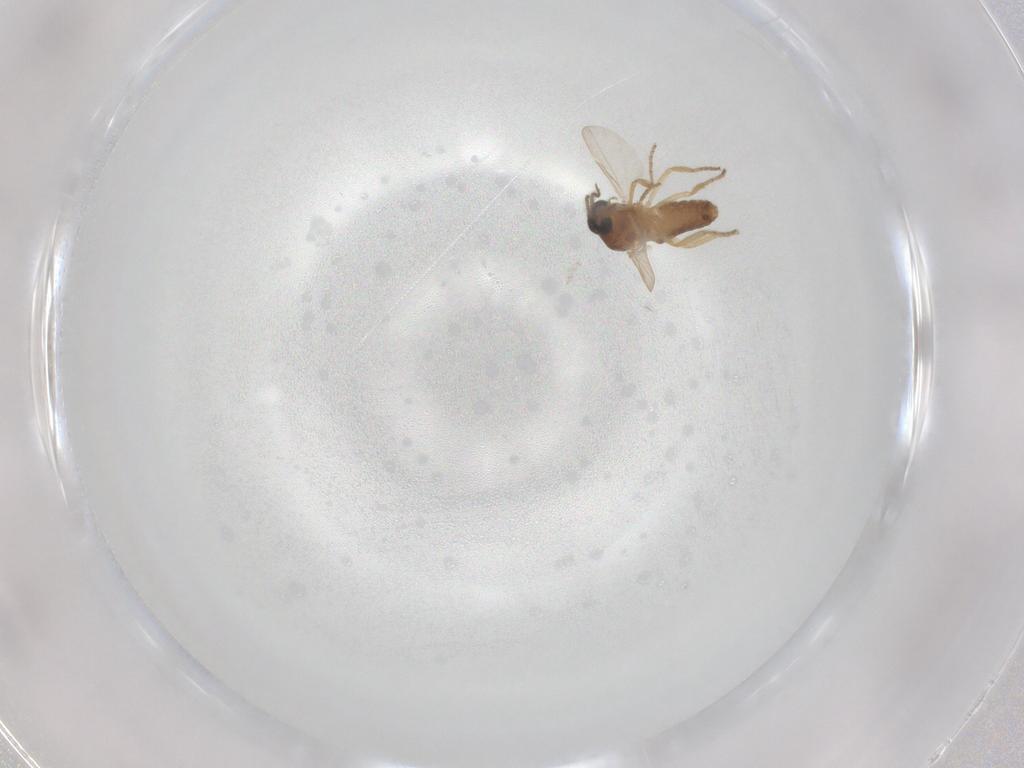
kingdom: Animalia
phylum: Arthropoda
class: Insecta
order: Diptera
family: Ceratopogonidae
